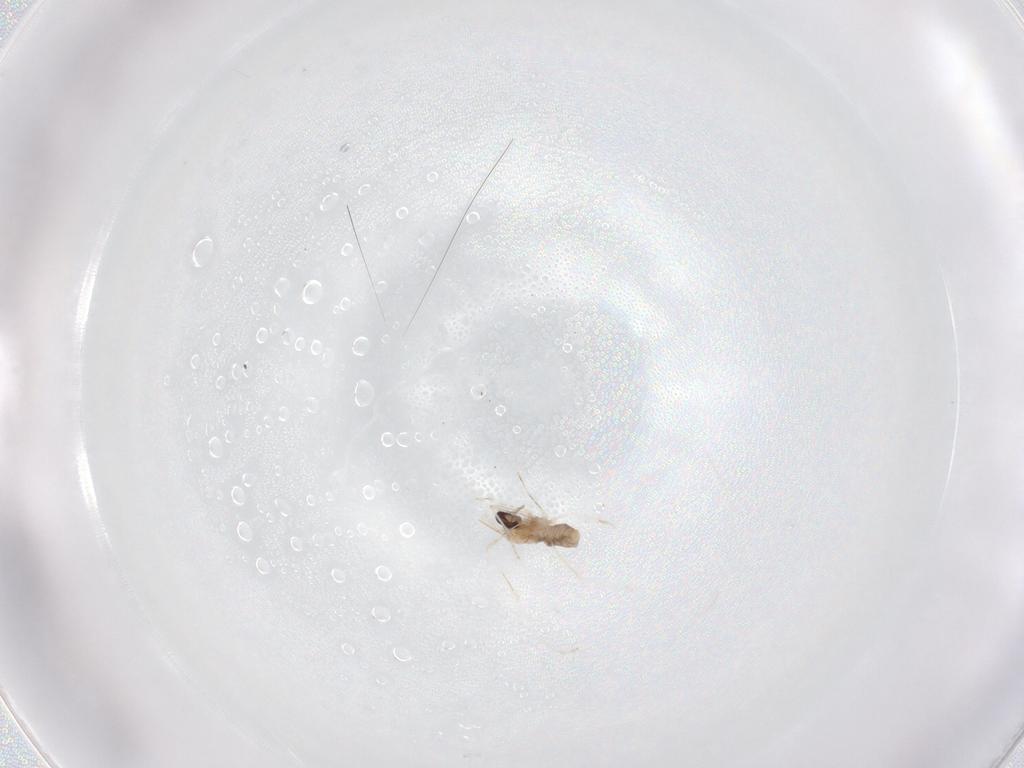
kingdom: Animalia
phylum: Arthropoda
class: Insecta
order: Diptera
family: Cecidomyiidae
